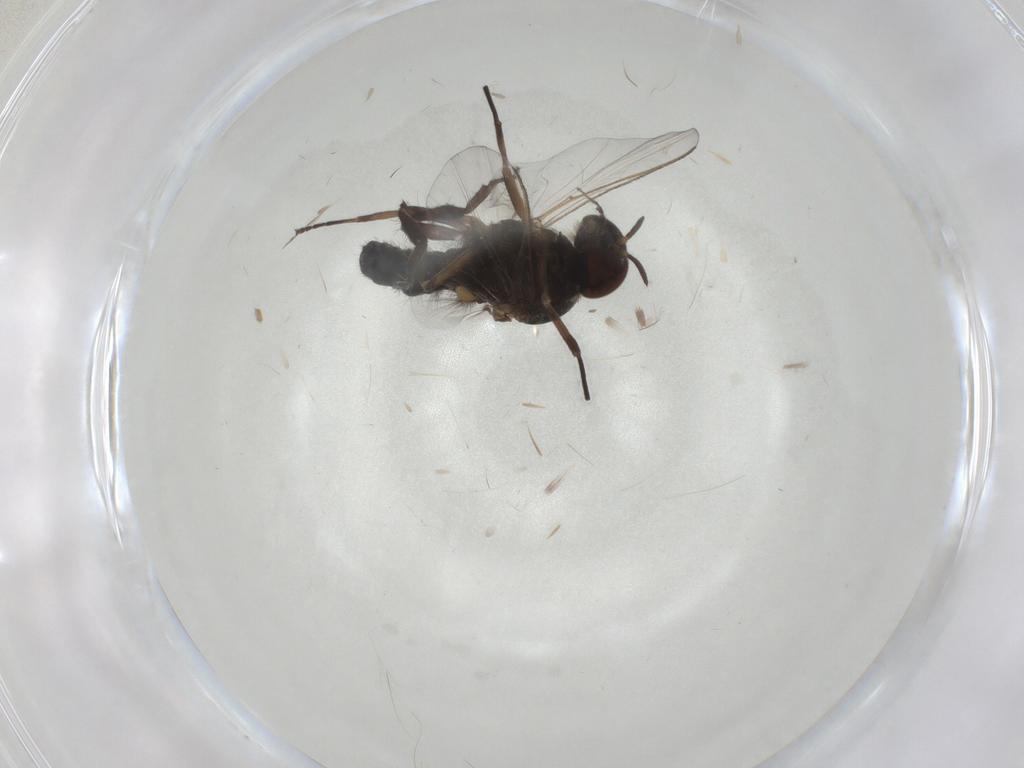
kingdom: Animalia
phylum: Arthropoda
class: Insecta
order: Diptera
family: Ceratopogonidae
